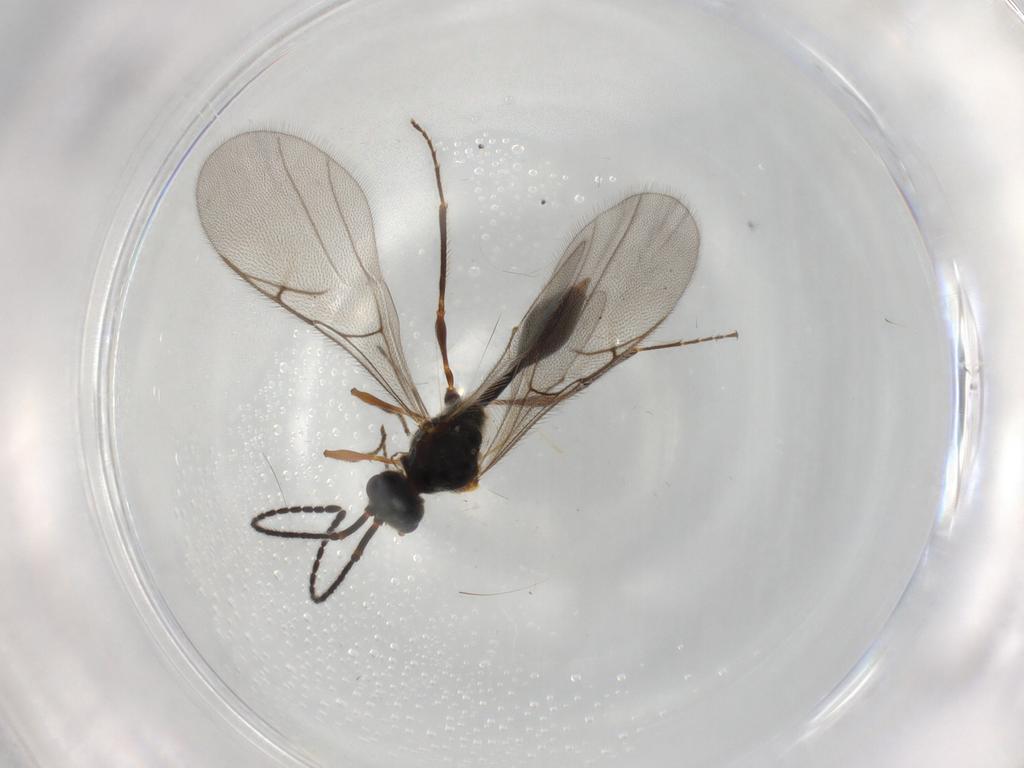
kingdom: Animalia
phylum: Arthropoda
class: Insecta
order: Hymenoptera
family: Diapriidae
